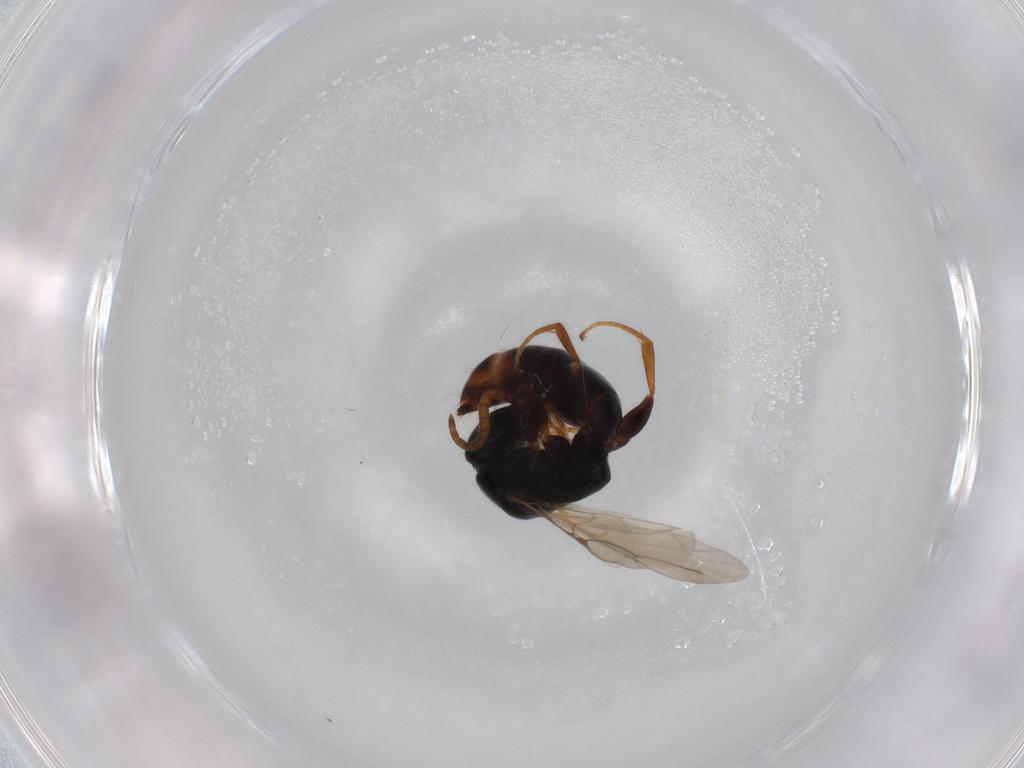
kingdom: Animalia
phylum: Arthropoda
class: Insecta
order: Hymenoptera
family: Bethylidae
